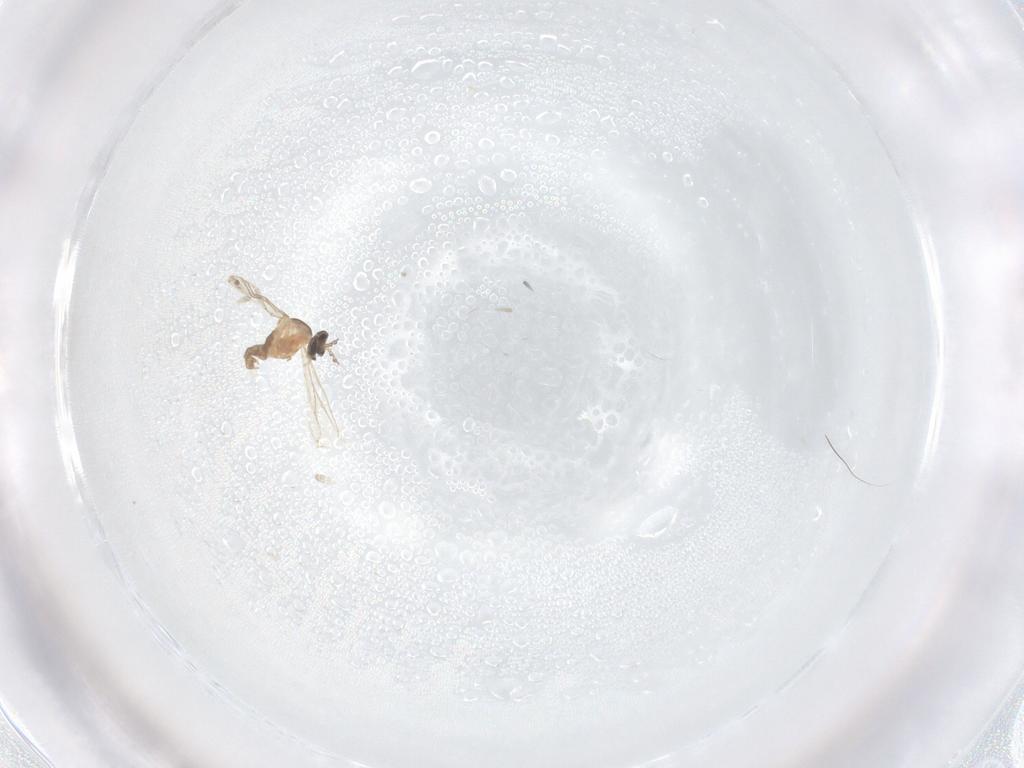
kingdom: Animalia
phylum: Arthropoda
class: Insecta
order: Diptera
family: Cecidomyiidae
